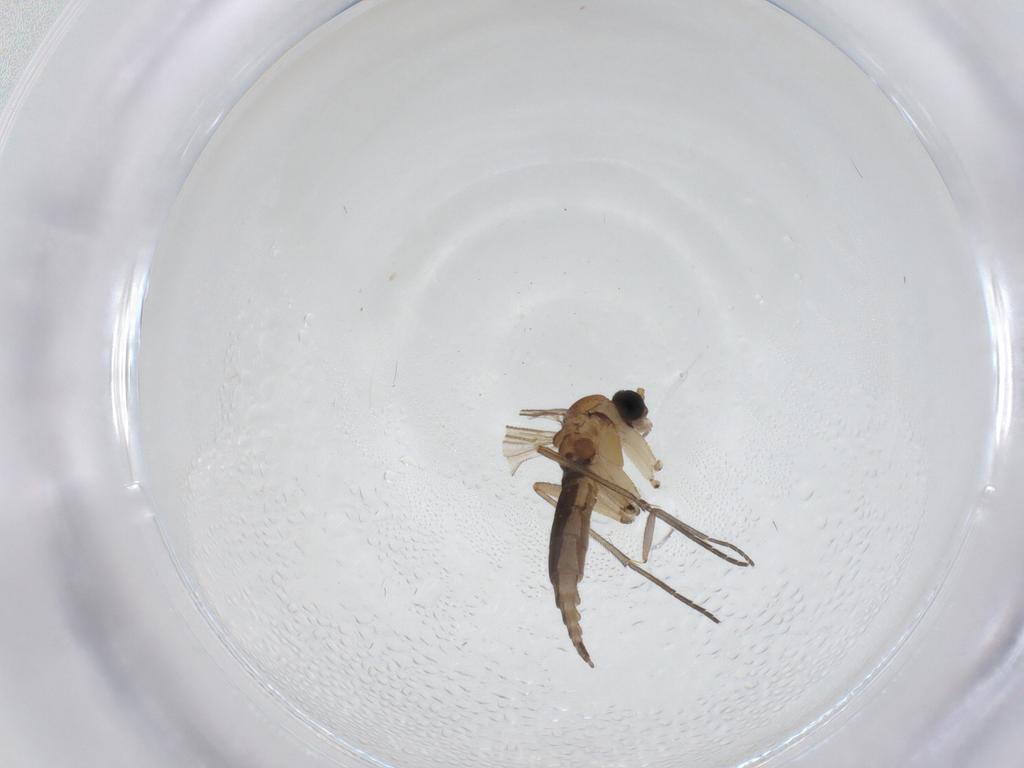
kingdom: Animalia
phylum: Arthropoda
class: Insecta
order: Diptera
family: Sciaridae
